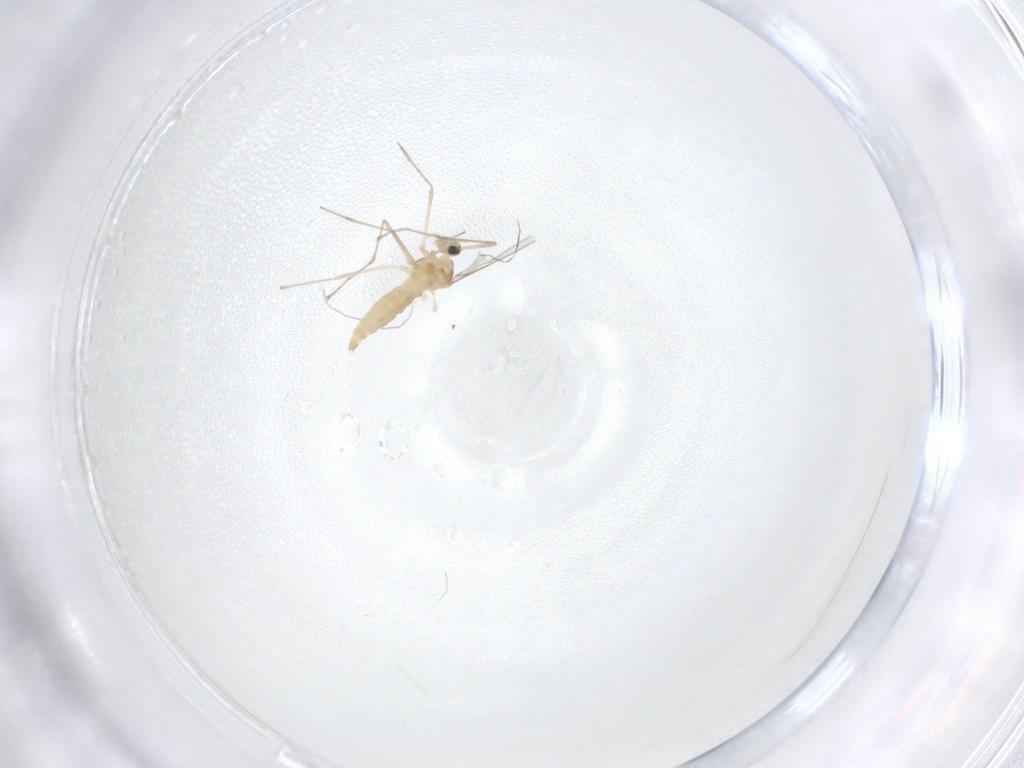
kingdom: Animalia
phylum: Arthropoda
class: Insecta
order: Diptera
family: Cecidomyiidae
